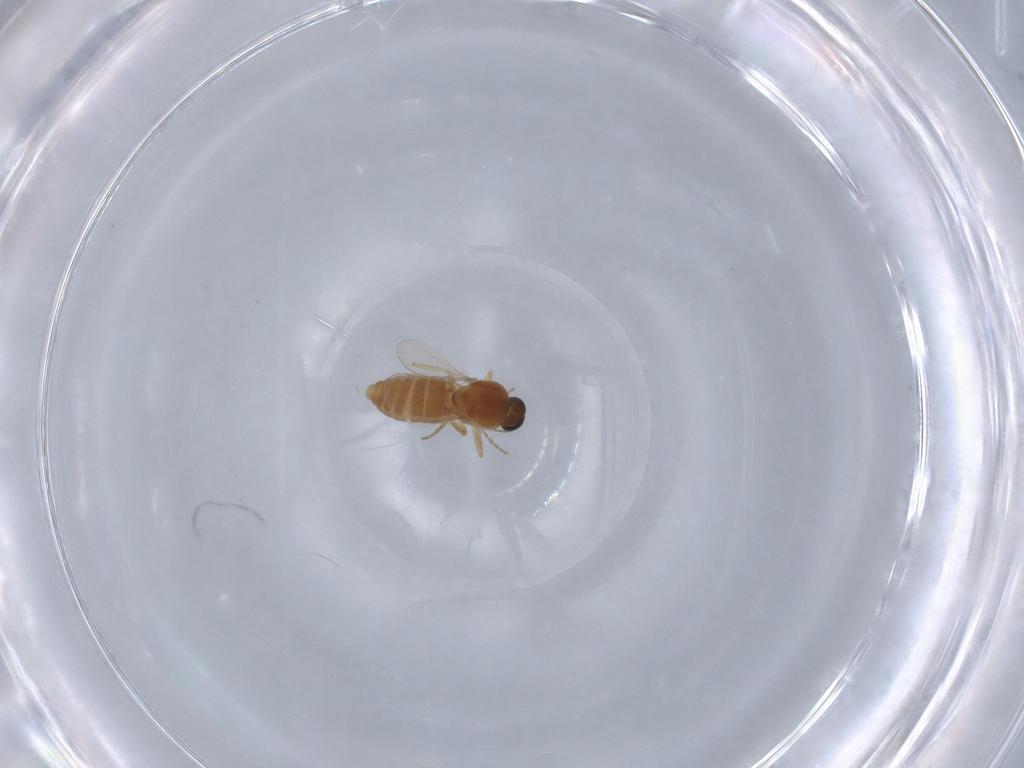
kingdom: Animalia
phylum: Arthropoda
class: Insecta
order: Diptera
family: Ceratopogonidae
